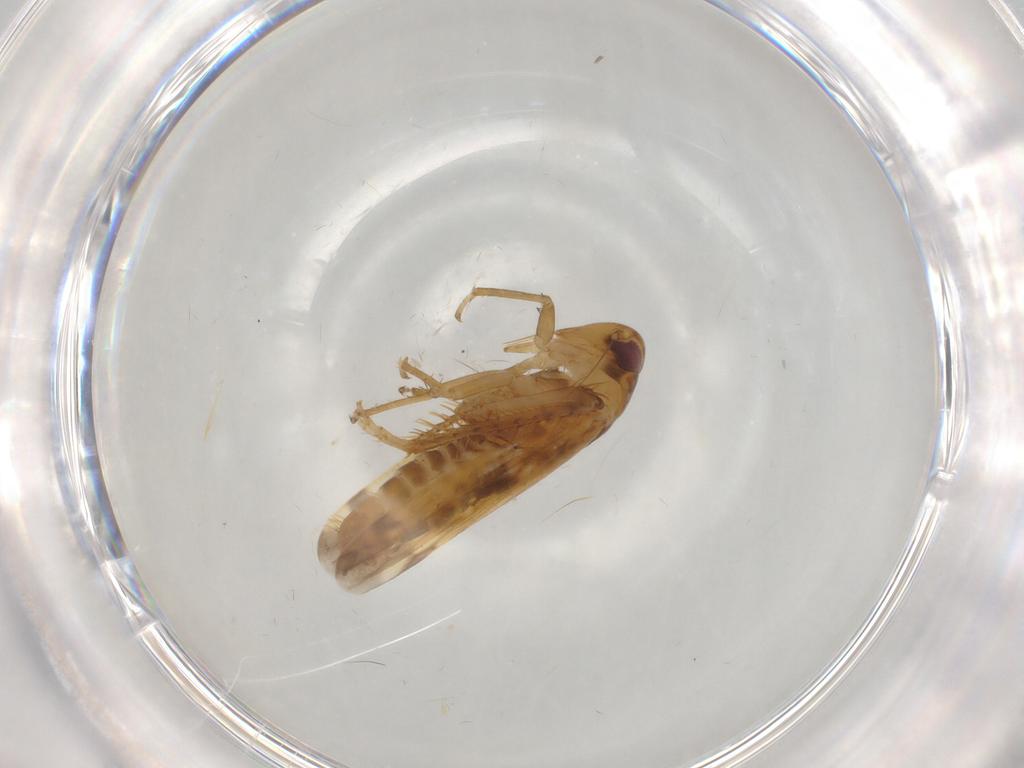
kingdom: Animalia
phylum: Arthropoda
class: Insecta
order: Hemiptera
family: Cicadellidae
